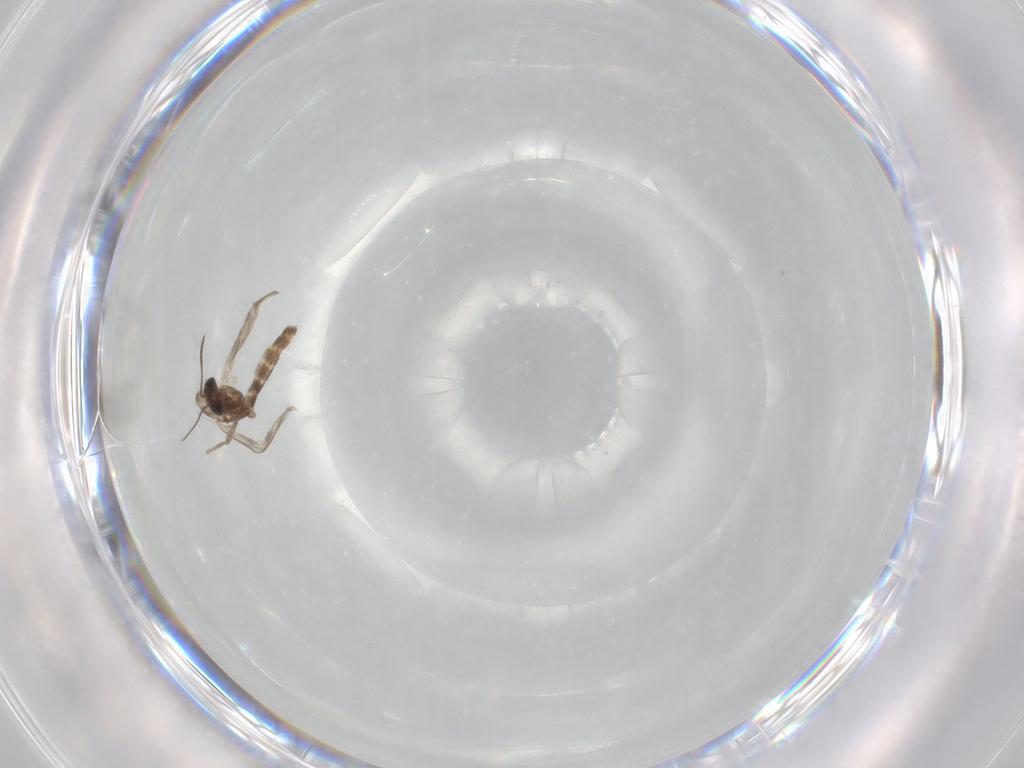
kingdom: Animalia
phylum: Arthropoda
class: Insecta
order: Diptera
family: Chironomidae
